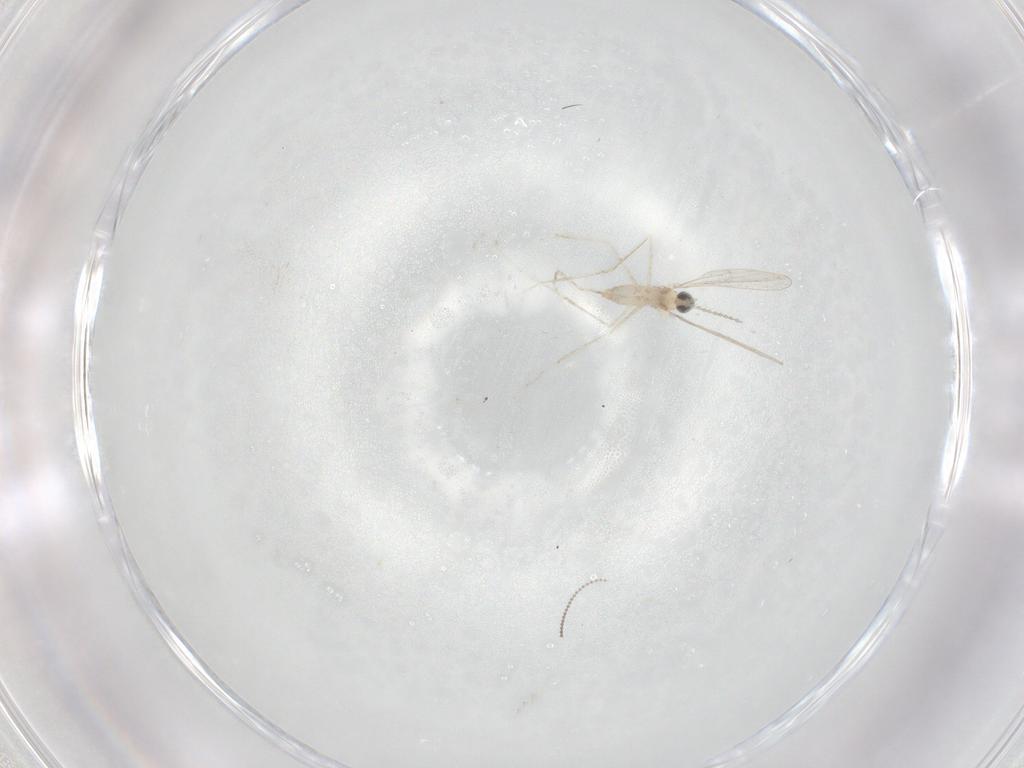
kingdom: Animalia
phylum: Arthropoda
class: Insecta
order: Diptera
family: Cecidomyiidae
